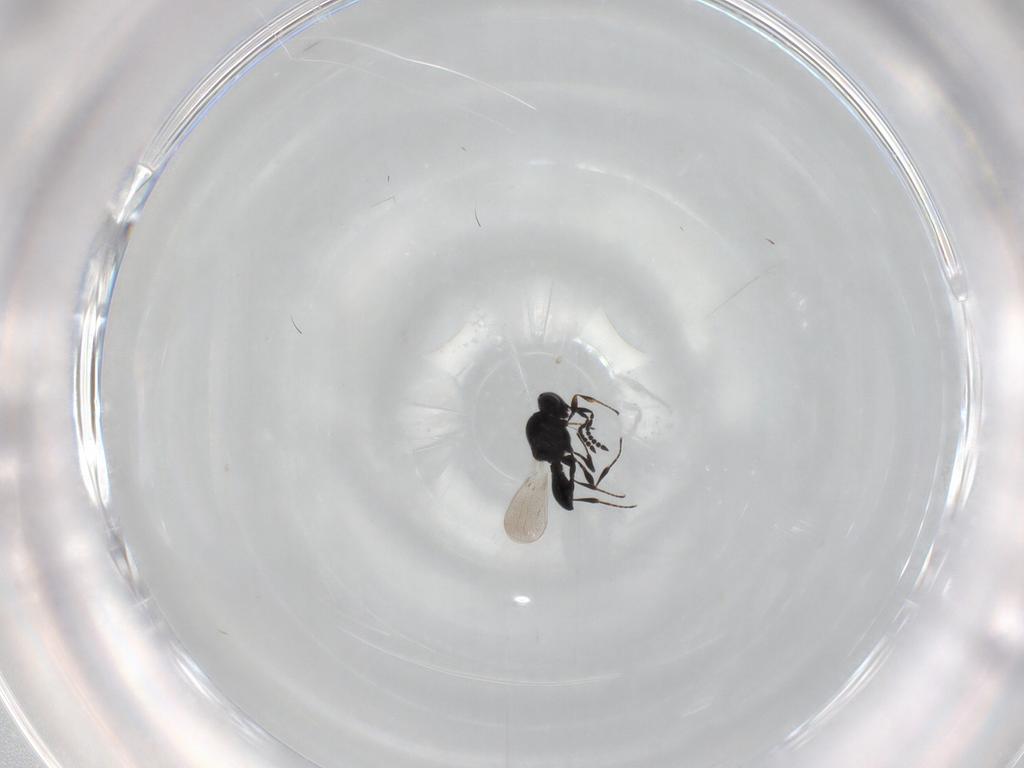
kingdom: Animalia
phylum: Arthropoda
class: Insecta
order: Hymenoptera
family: Platygastridae
